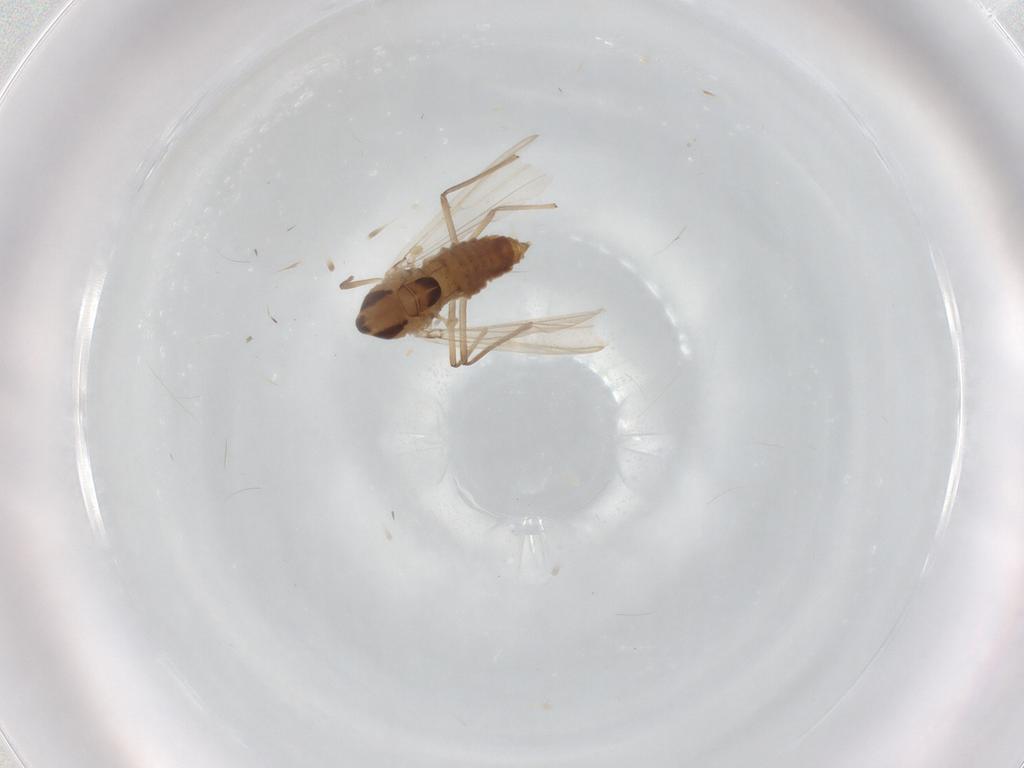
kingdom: Animalia
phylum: Arthropoda
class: Insecta
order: Diptera
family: Chironomidae
